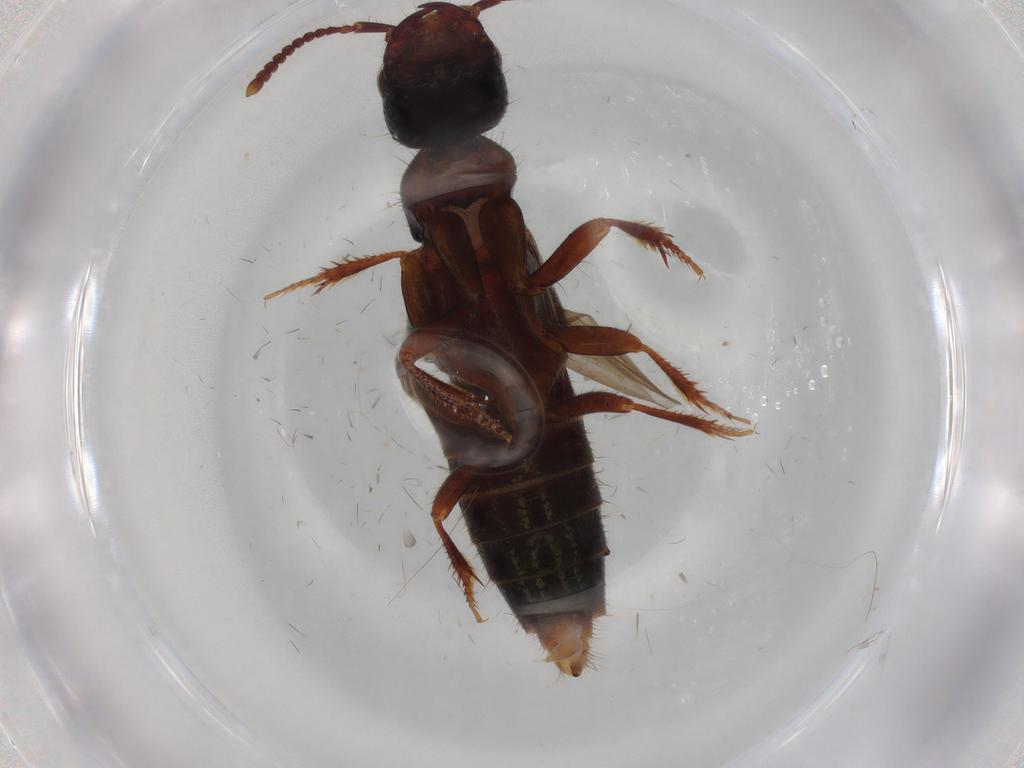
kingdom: Animalia
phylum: Arthropoda
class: Insecta
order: Coleoptera
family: Staphylinidae
